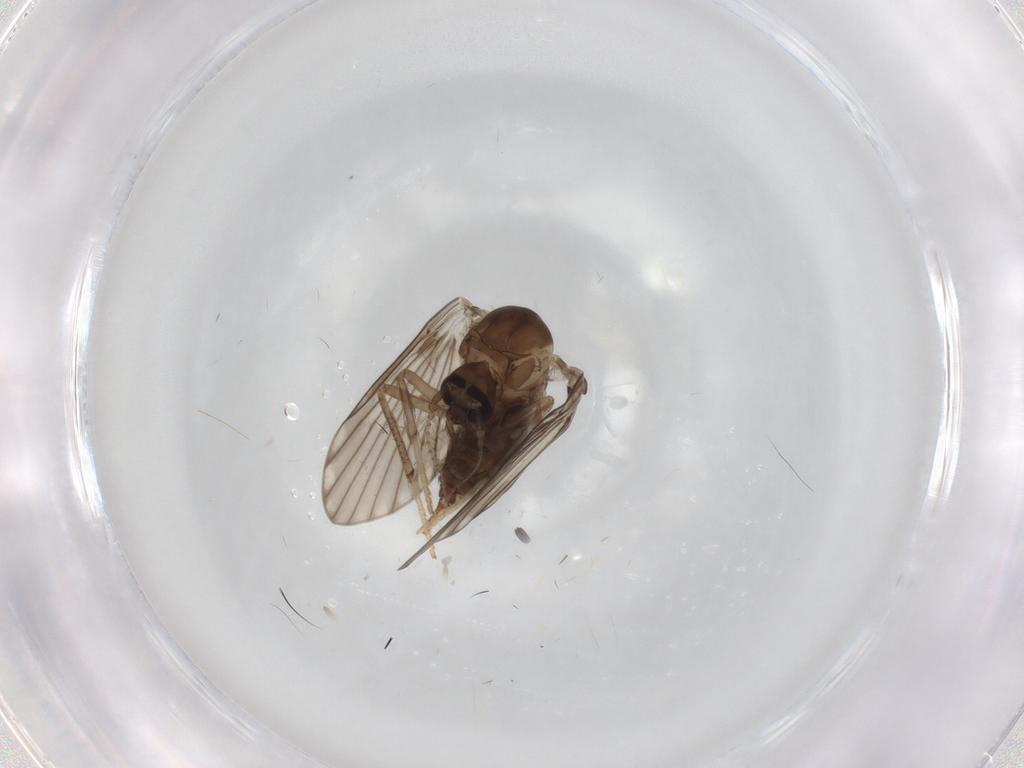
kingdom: Animalia
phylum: Arthropoda
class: Insecta
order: Diptera
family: Psychodidae
